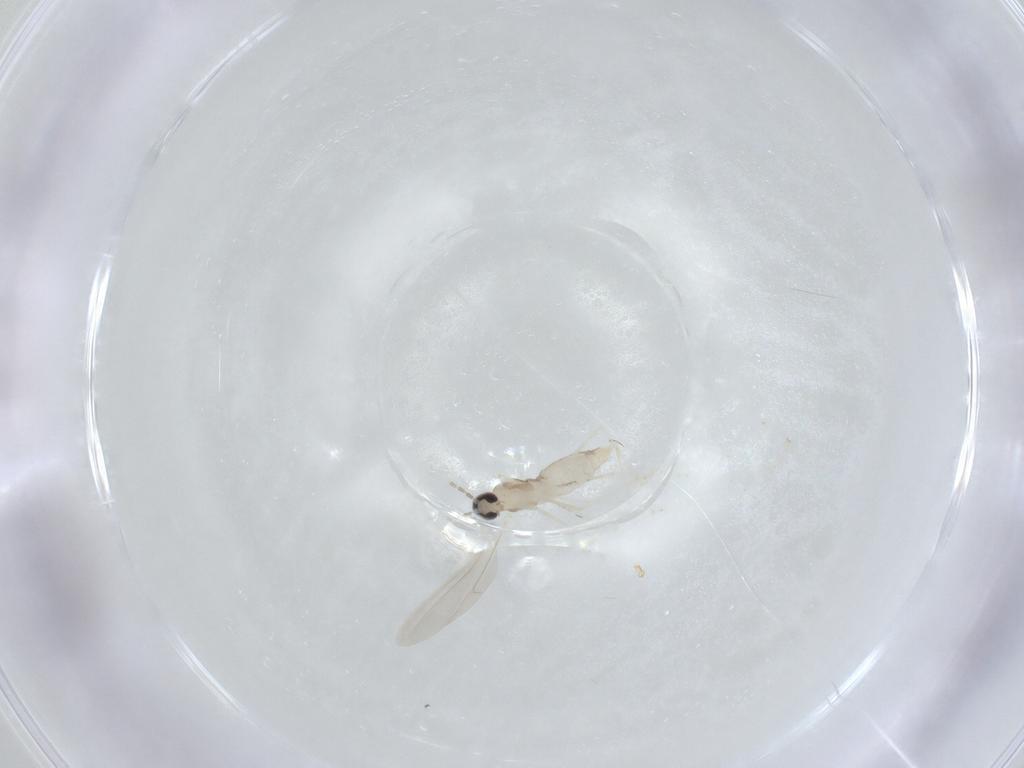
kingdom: Animalia
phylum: Arthropoda
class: Insecta
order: Diptera
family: Cecidomyiidae
